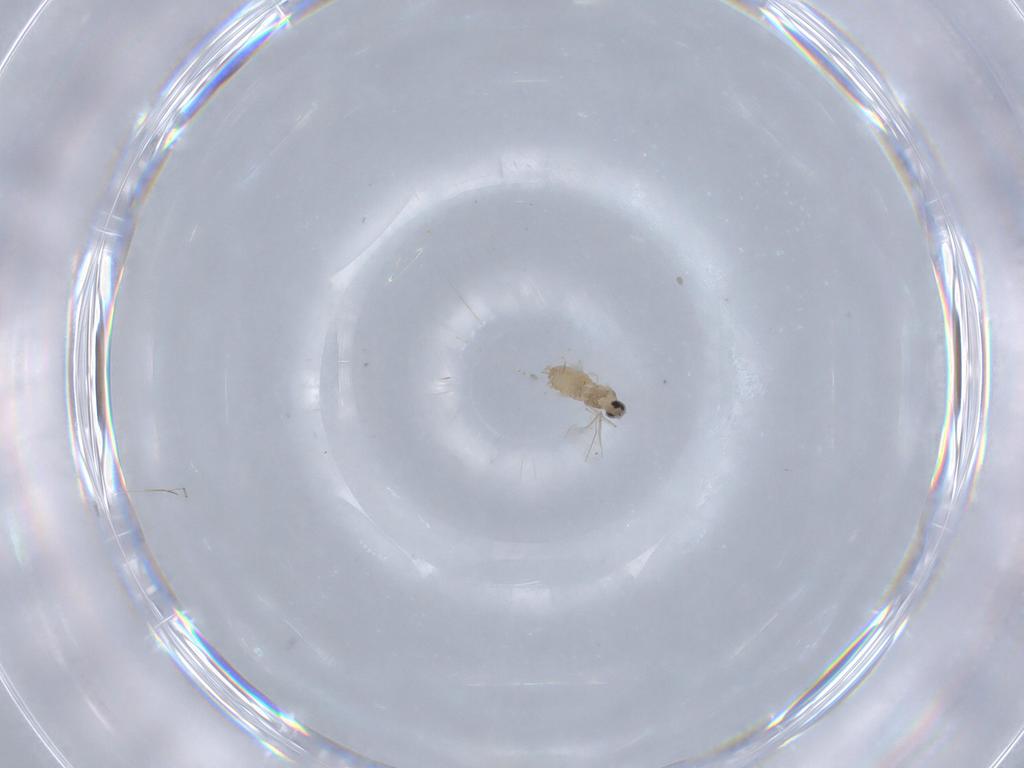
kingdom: Animalia
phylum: Arthropoda
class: Insecta
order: Diptera
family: Cecidomyiidae
